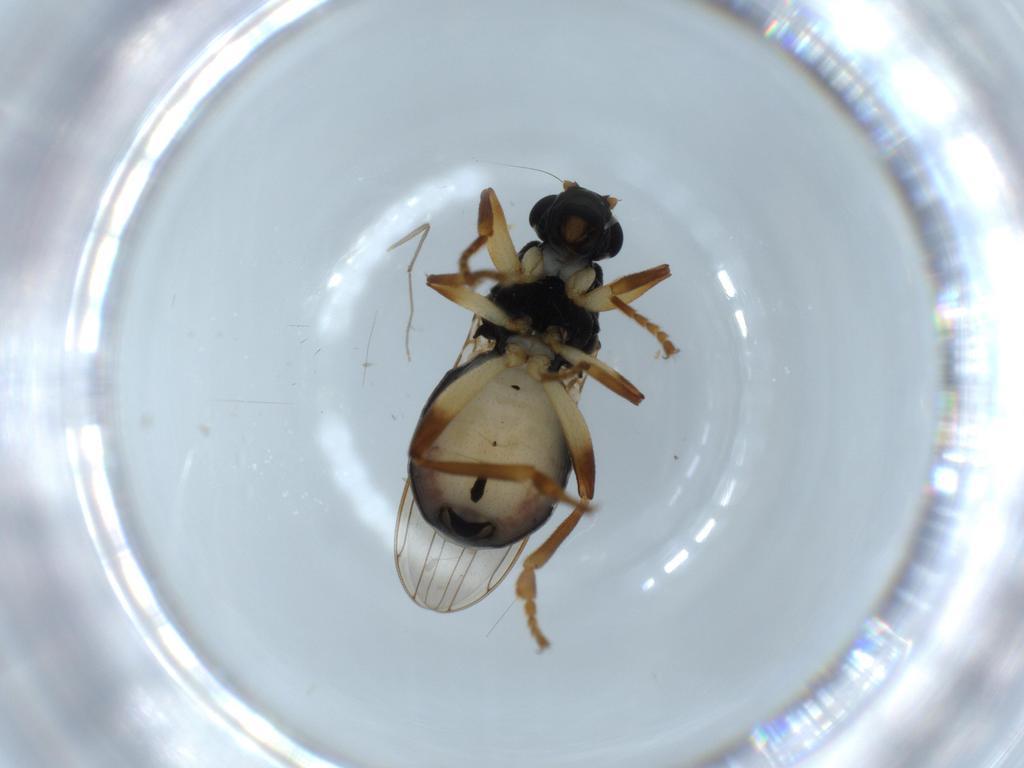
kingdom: Animalia
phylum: Arthropoda
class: Insecta
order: Diptera
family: Sphaeroceridae
